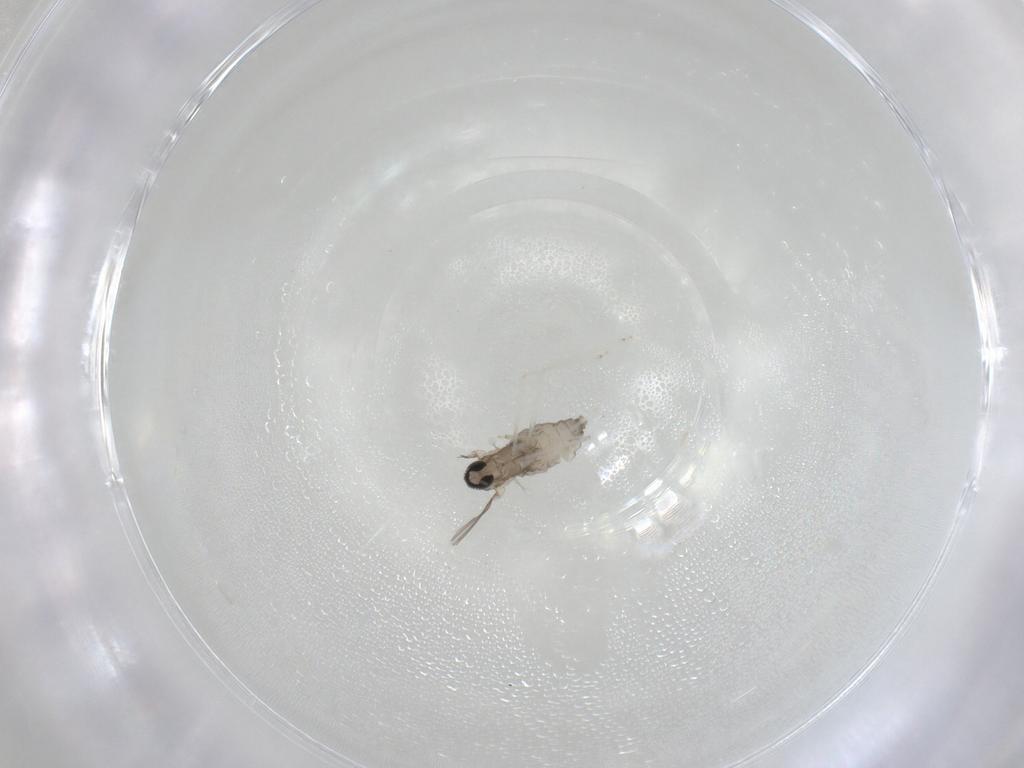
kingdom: Animalia
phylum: Arthropoda
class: Insecta
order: Diptera
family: Cecidomyiidae
